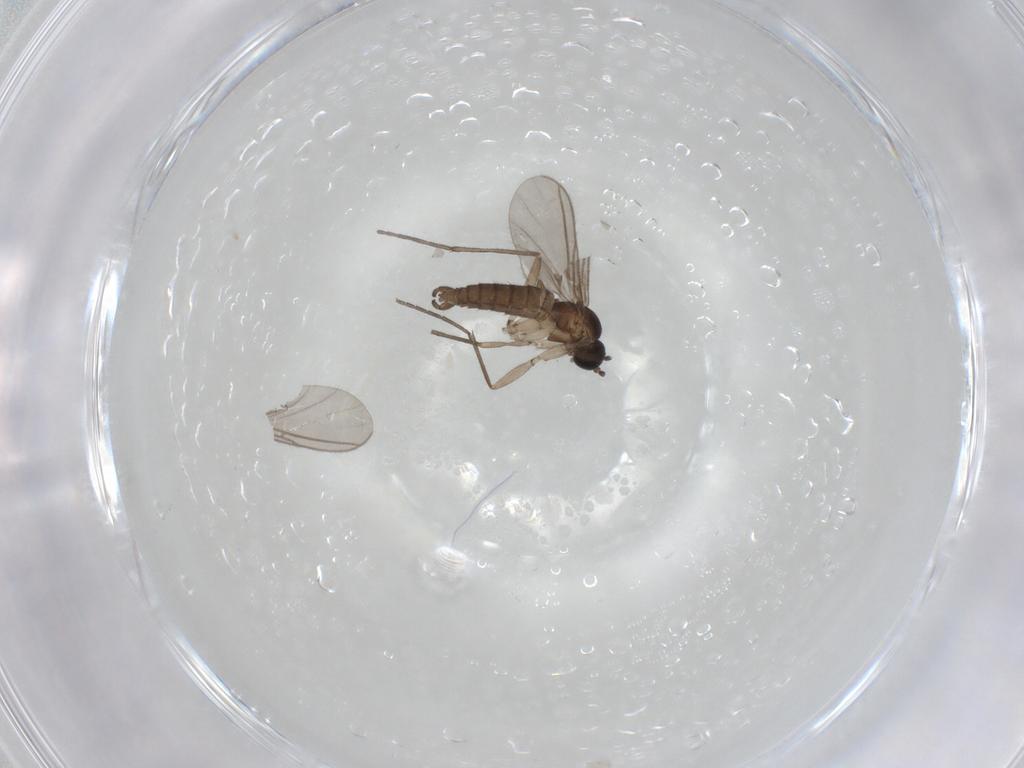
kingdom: Animalia
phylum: Arthropoda
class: Insecta
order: Diptera
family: Sciaridae
